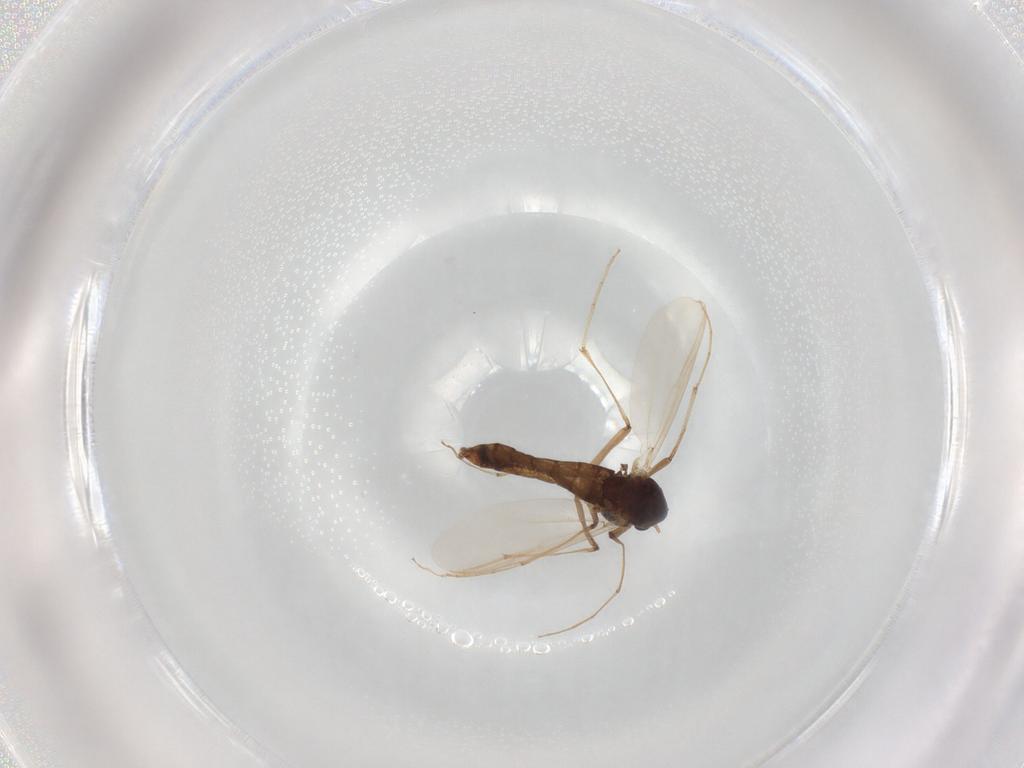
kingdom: Animalia
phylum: Arthropoda
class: Insecta
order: Diptera
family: Chironomidae
